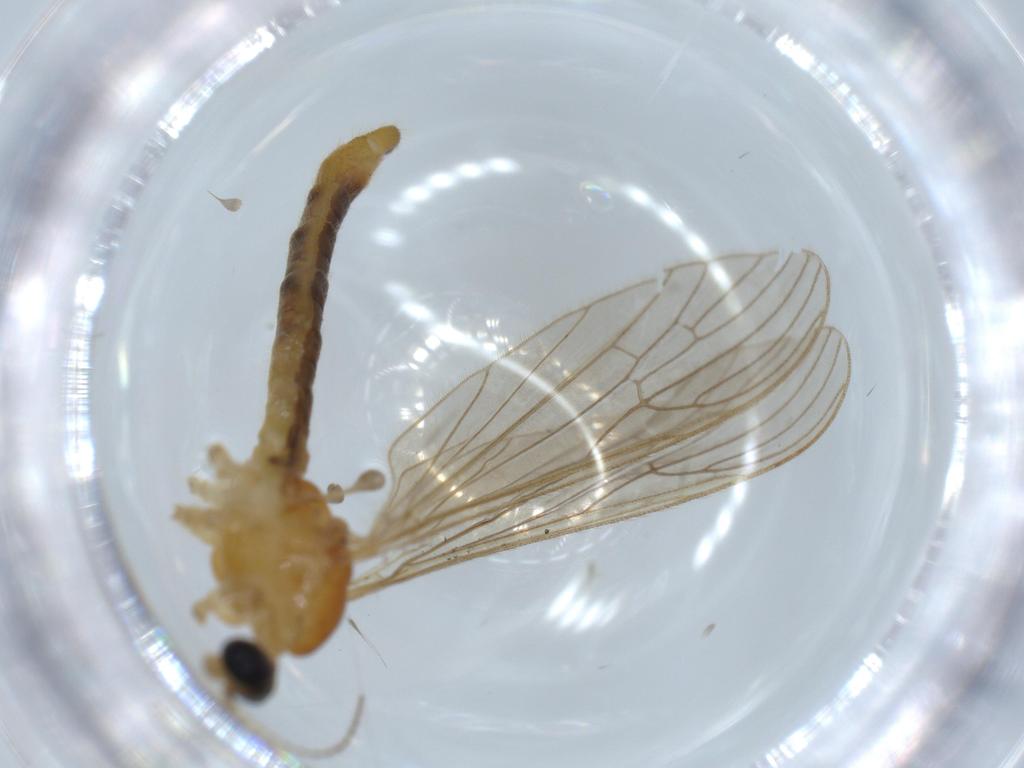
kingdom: Animalia
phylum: Arthropoda
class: Insecta
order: Diptera
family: Limoniidae
